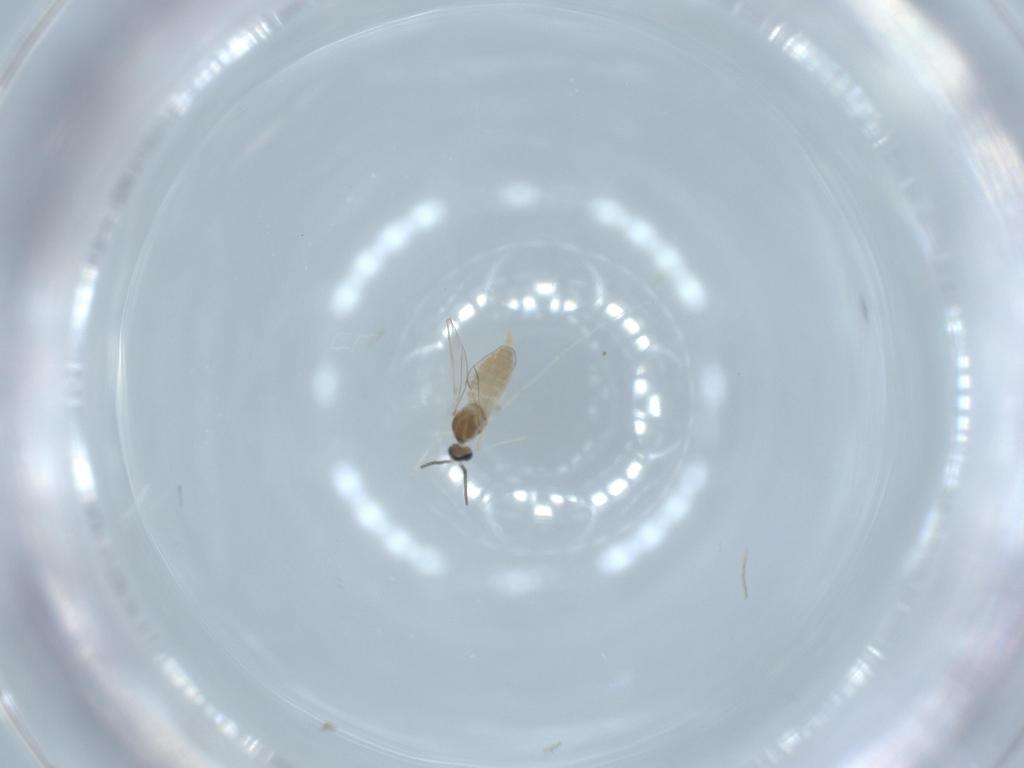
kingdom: Animalia
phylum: Arthropoda
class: Insecta
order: Diptera
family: Cecidomyiidae
